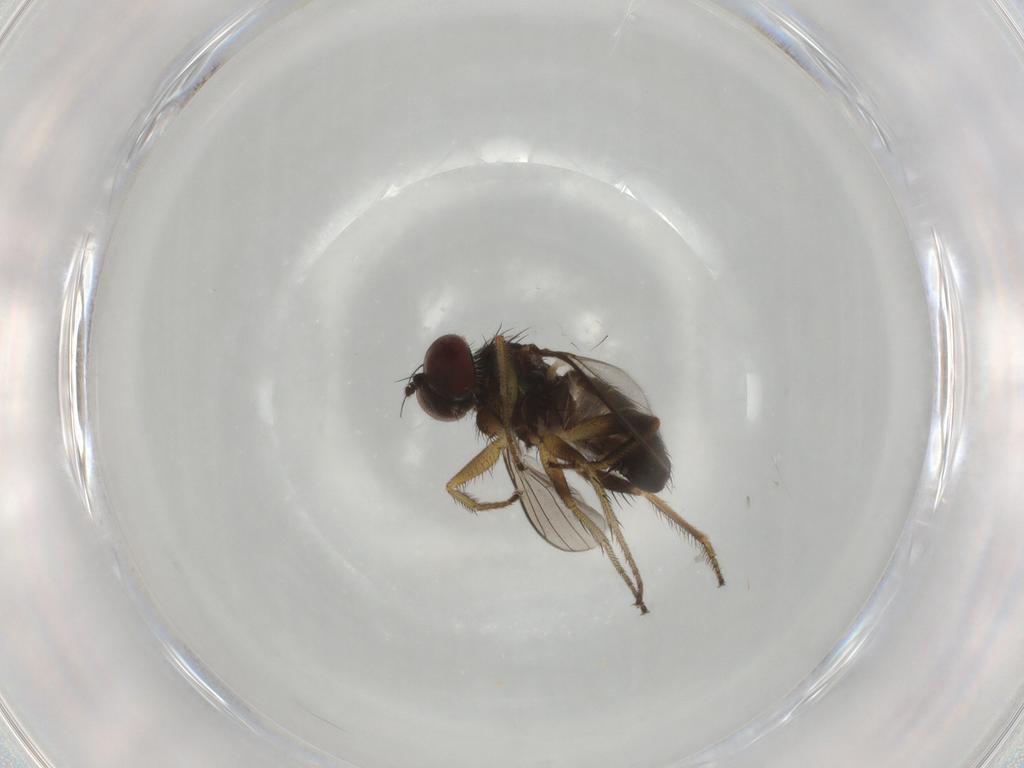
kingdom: Animalia
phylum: Arthropoda
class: Insecta
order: Diptera
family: Dolichopodidae
